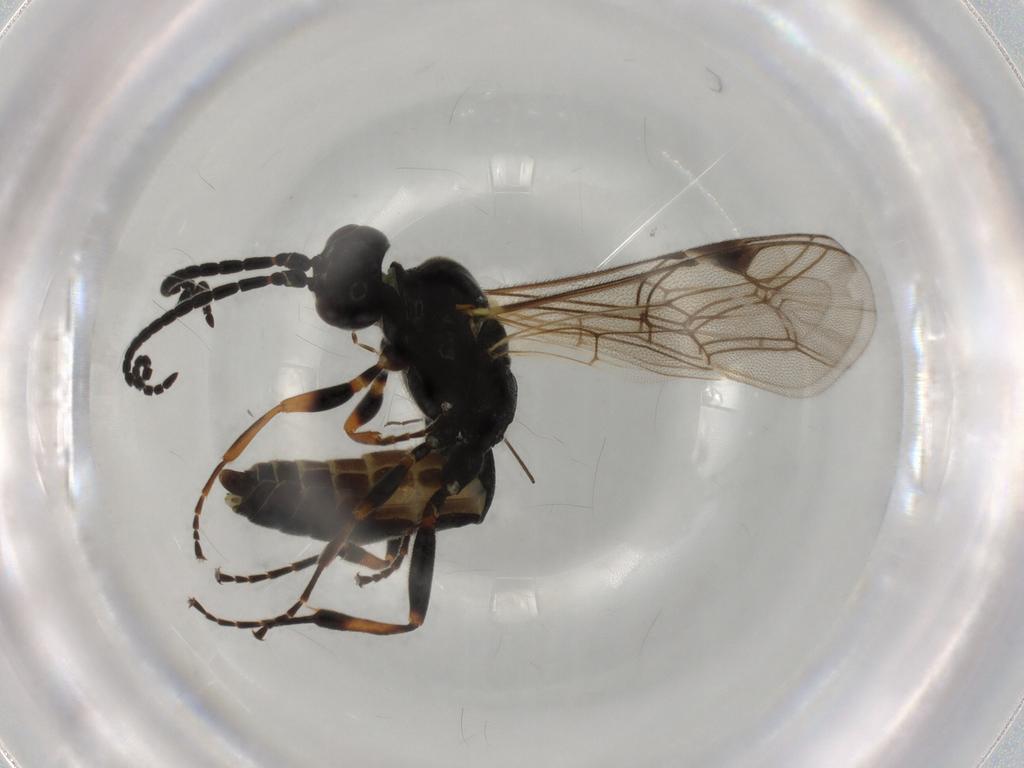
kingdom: Animalia
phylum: Arthropoda
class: Insecta
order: Hymenoptera
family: Ichneumonidae
